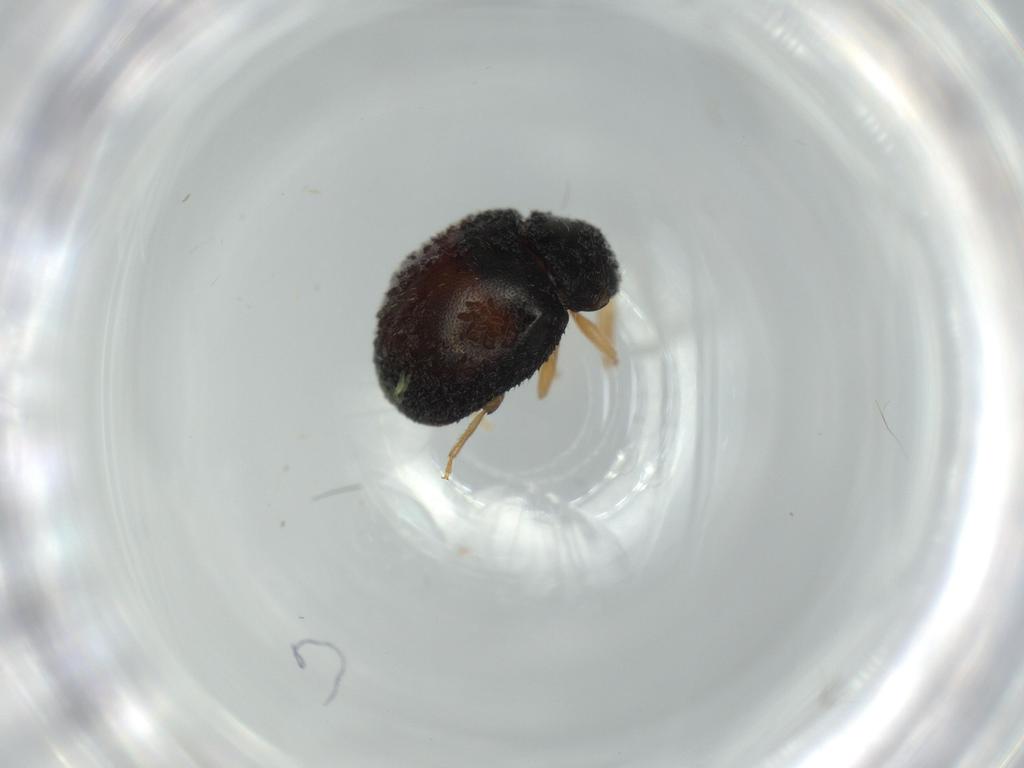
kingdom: Animalia
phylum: Arthropoda
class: Insecta
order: Coleoptera
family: Coccinellidae
